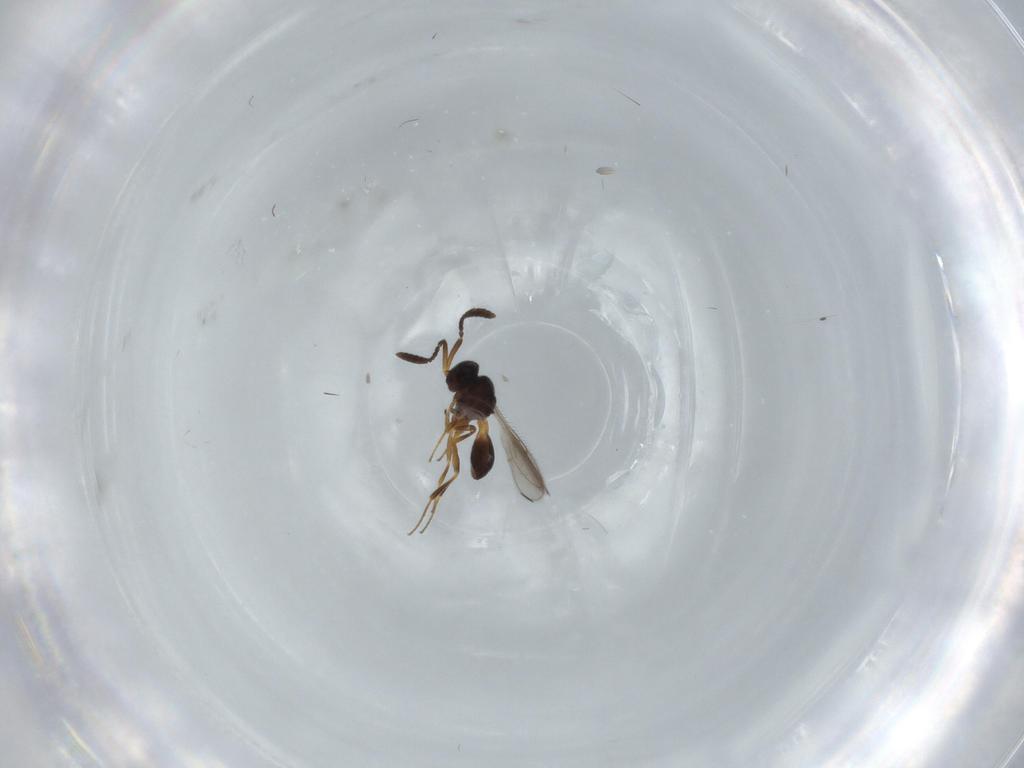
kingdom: Animalia
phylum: Arthropoda
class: Insecta
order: Hymenoptera
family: Scelionidae
